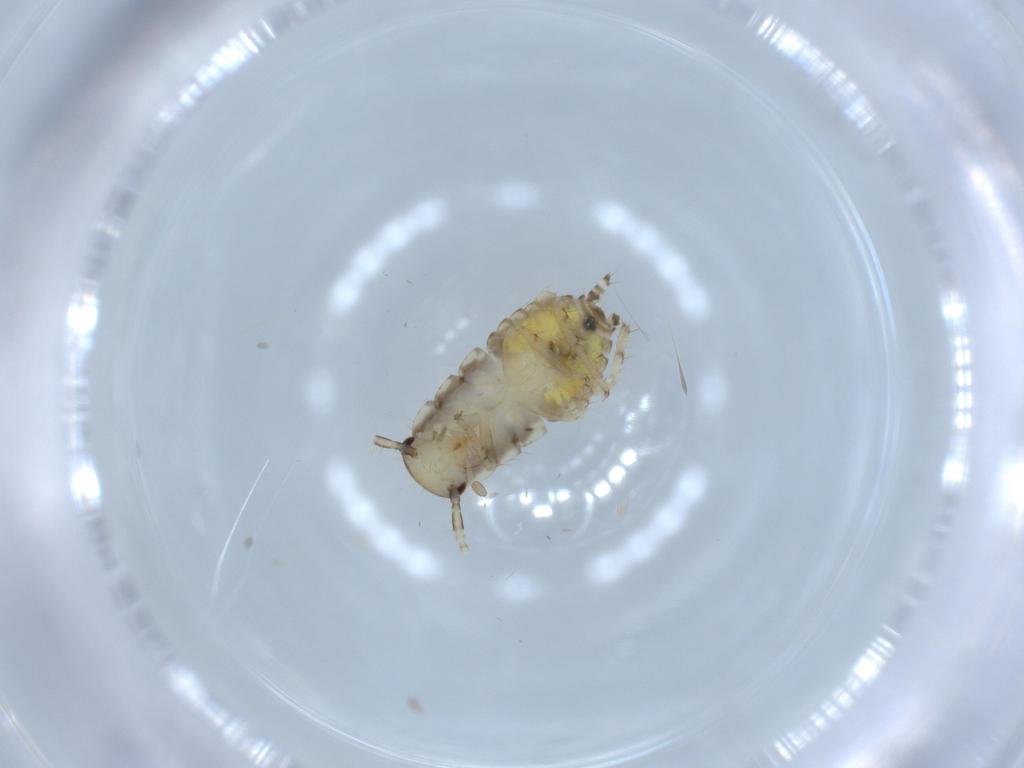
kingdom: Animalia
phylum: Arthropoda
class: Insecta
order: Blattodea
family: Ectobiidae
